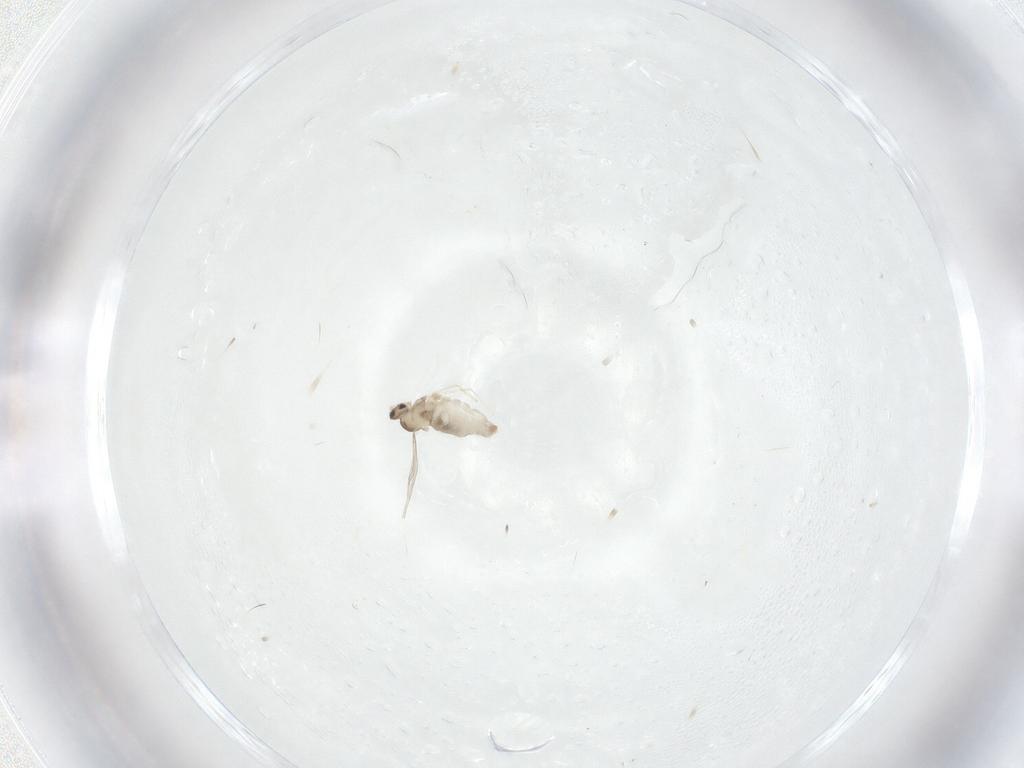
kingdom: Animalia
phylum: Arthropoda
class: Insecta
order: Diptera
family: Cecidomyiidae
